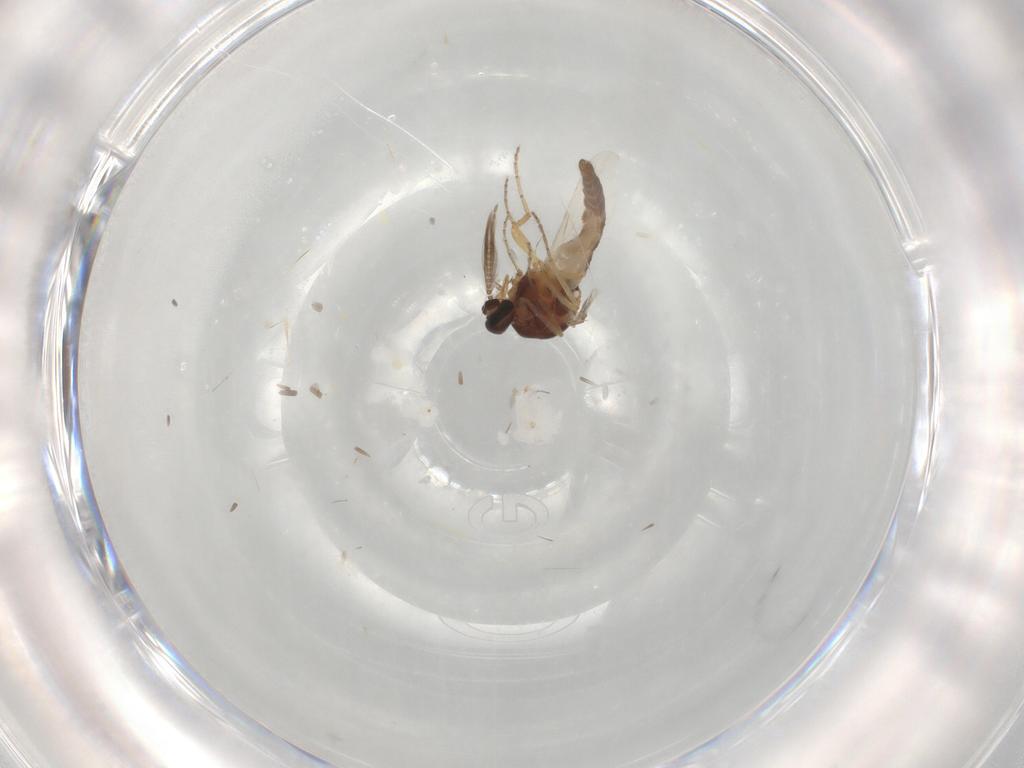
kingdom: Animalia
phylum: Arthropoda
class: Insecta
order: Diptera
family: Ceratopogonidae
